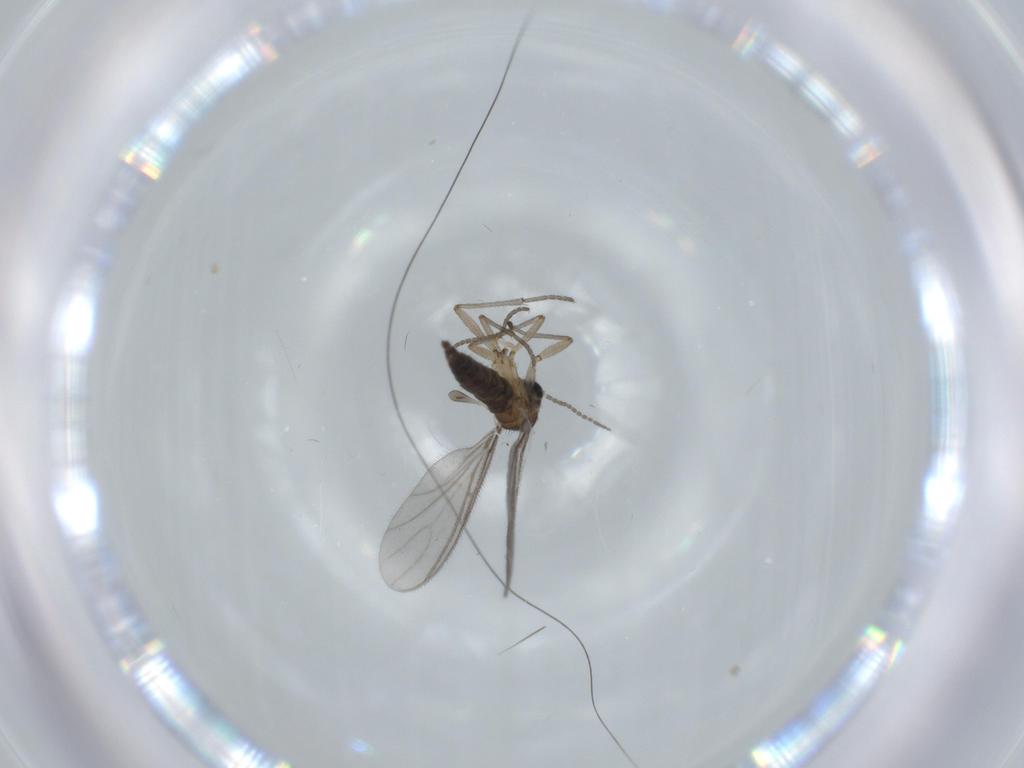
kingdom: Animalia
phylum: Arthropoda
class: Insecta
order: Diptera
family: Sciaridae
